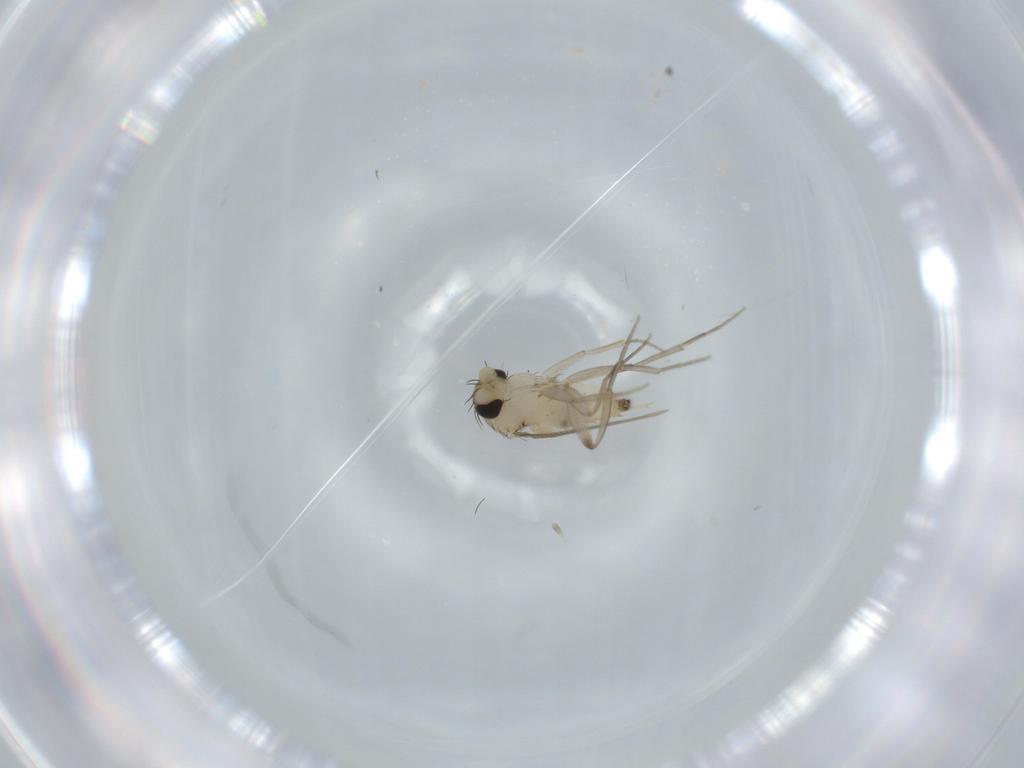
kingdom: Animalia
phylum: Arthropoda
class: Insecta
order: Diptera
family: Phoridae
